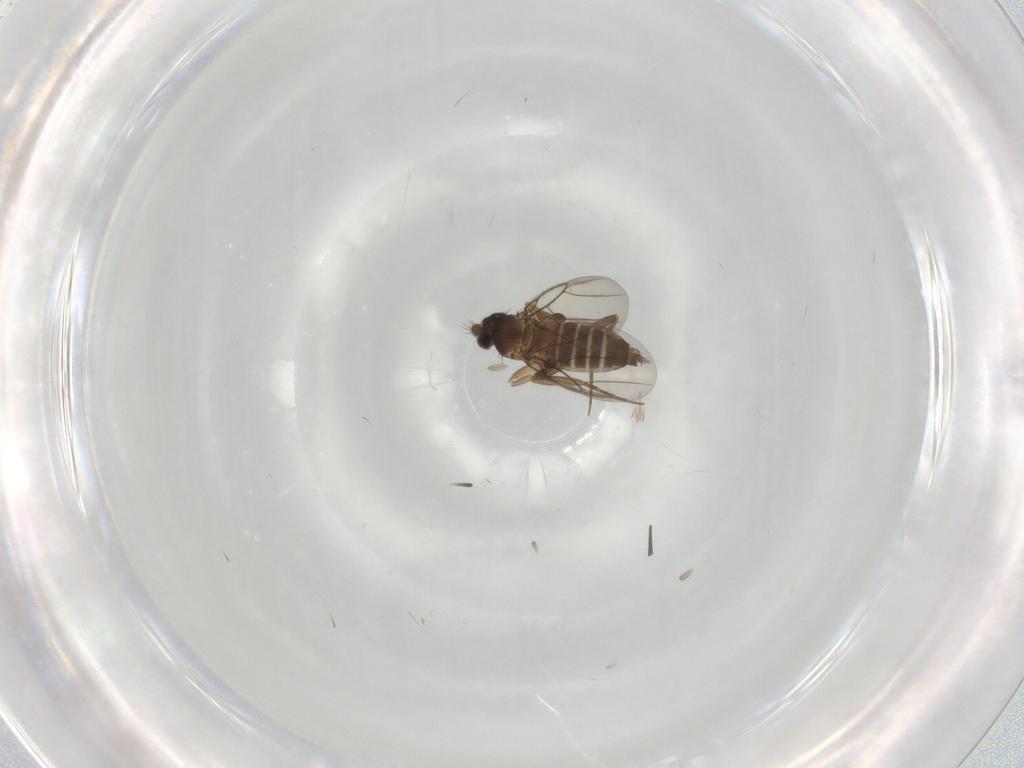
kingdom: Animalia
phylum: Arthropoda
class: Insecta
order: Diptera
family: Phoridae
